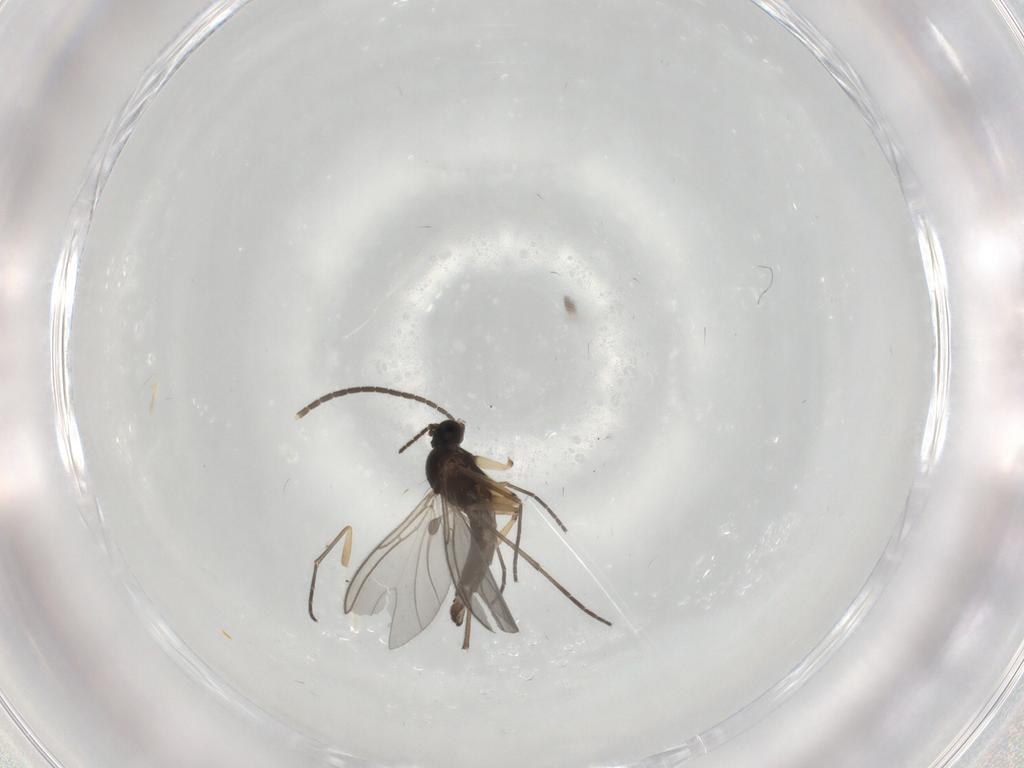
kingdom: Animalia
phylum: Arthropoda
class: Insecta
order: Diptera
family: Sciaridae
